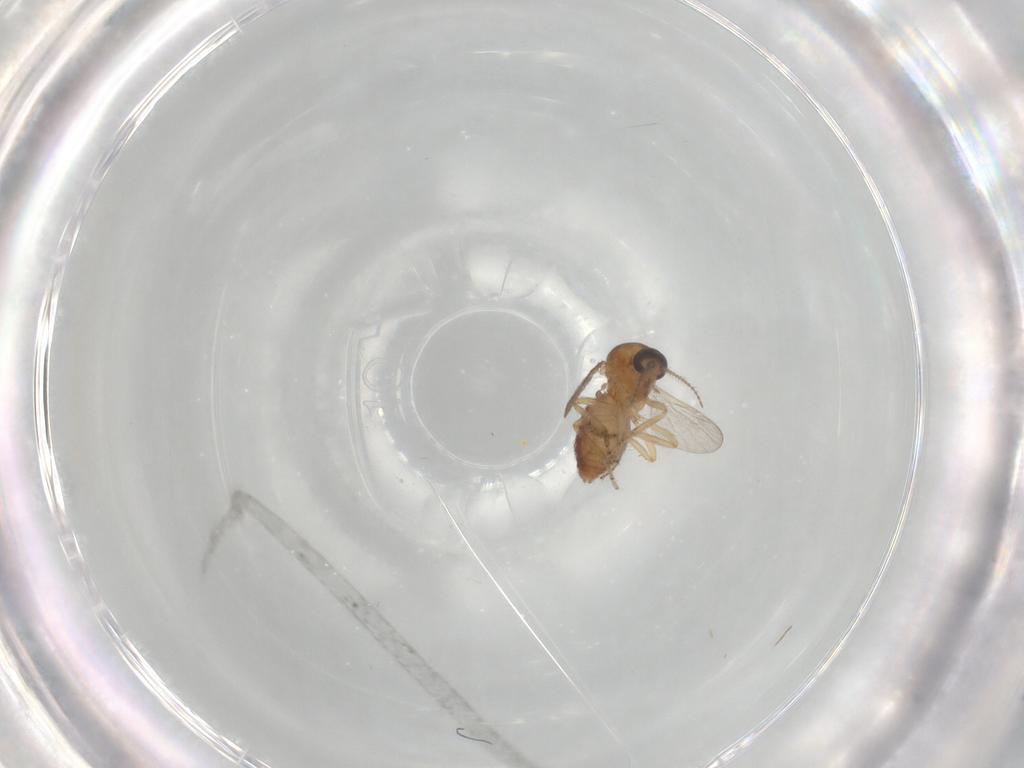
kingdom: Animalia
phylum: Arthropoda
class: Insecta
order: Diptera
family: Ceratopogonidae
